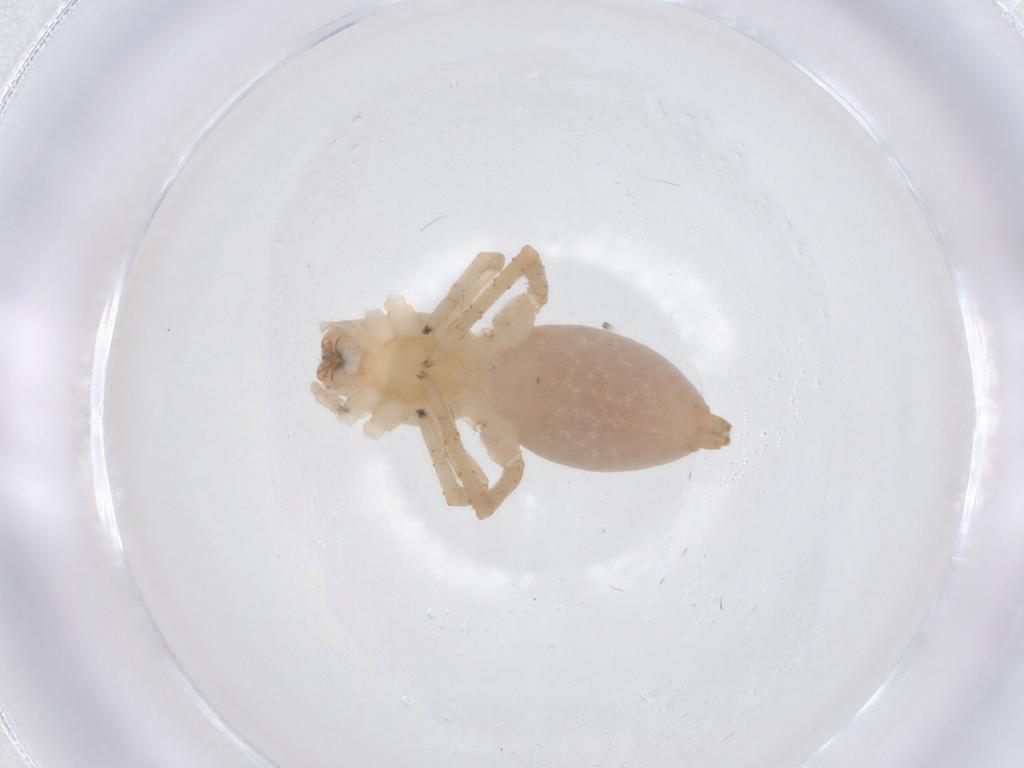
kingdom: Animalia
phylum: Arthropoda
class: Arachnida
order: Araneae
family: Clubionidae
